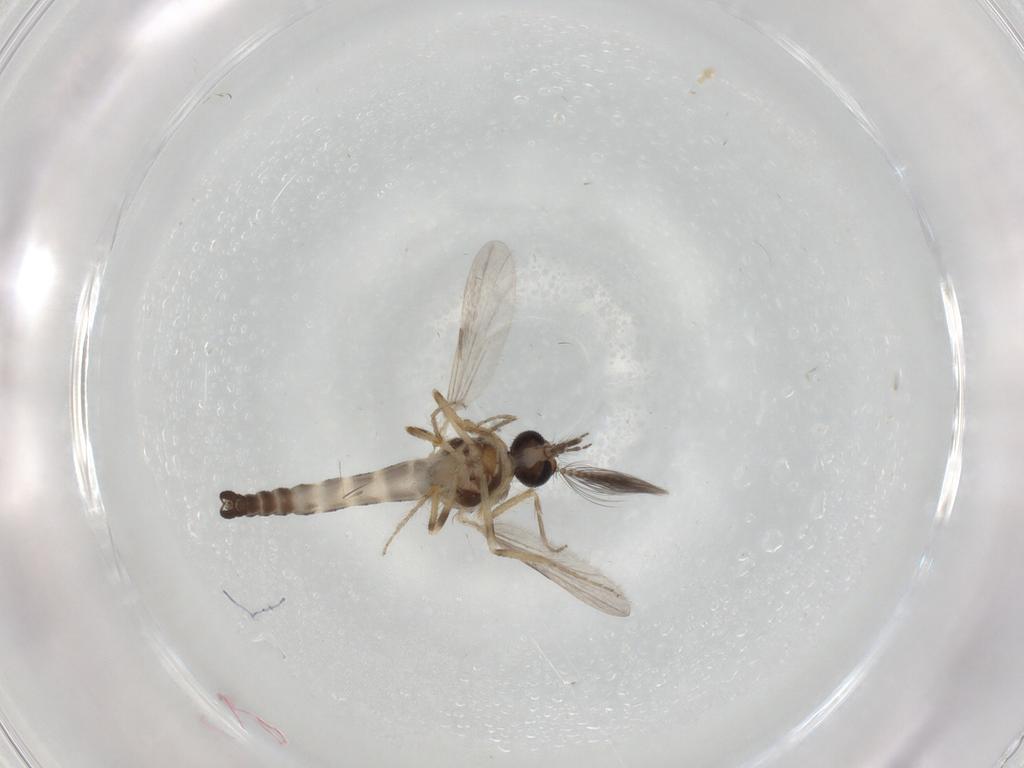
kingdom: Animalia
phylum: Arthropoda
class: Insecta
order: Diptera
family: Ceratopogonidae
